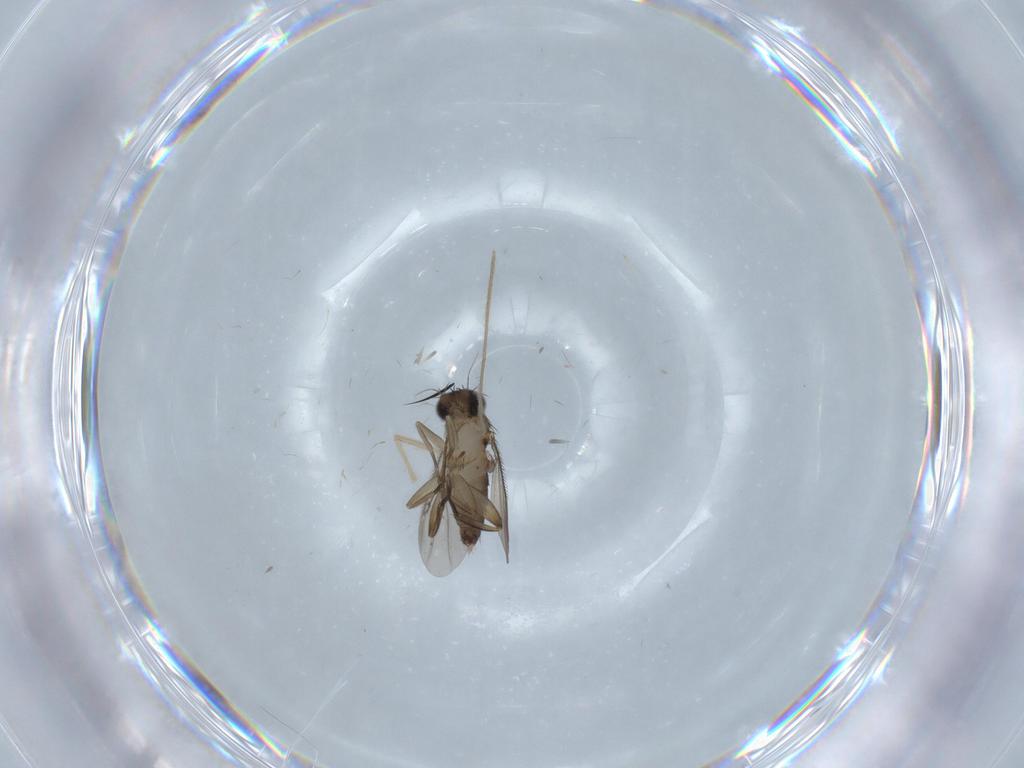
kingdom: Animalia
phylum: Arthropoda
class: Insecta
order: Diptera
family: Phoridae
